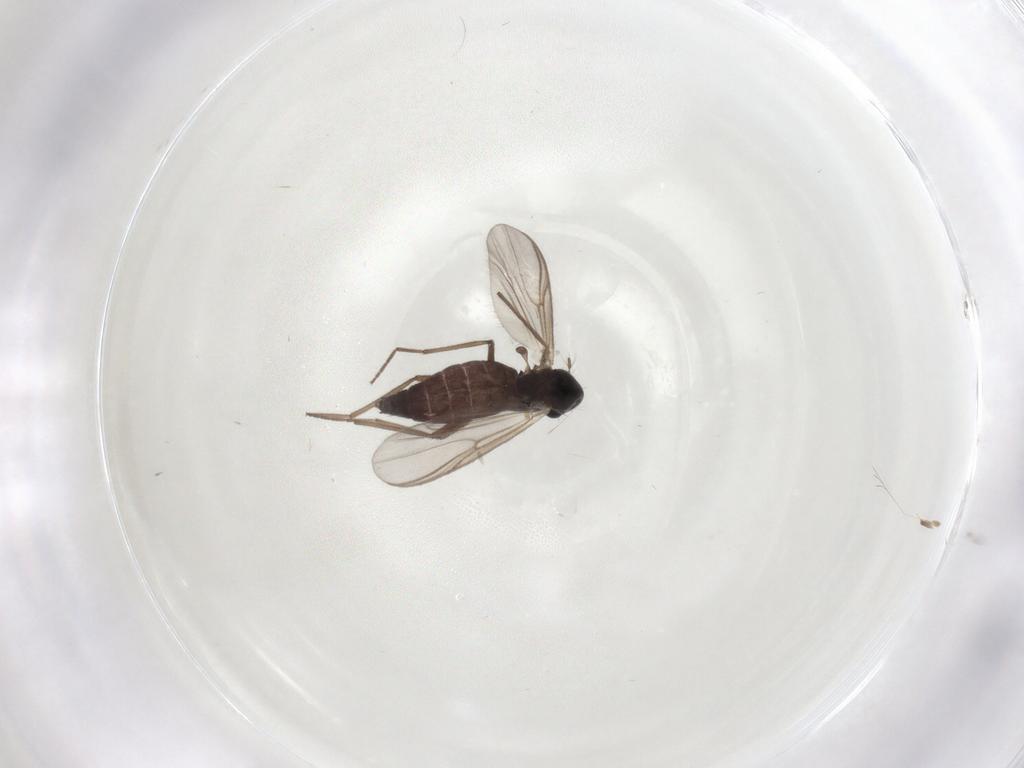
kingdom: Animalia
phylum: Arthropoda
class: Insecta
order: Diptera
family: Chironomidae
